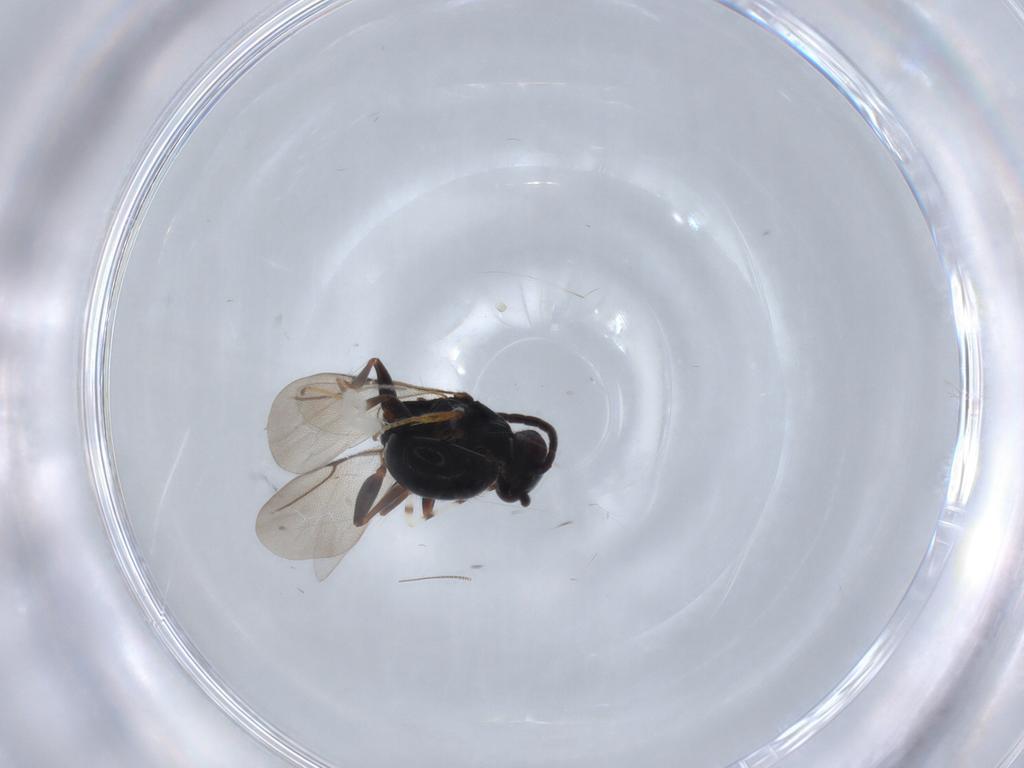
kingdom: Animalia
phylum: Arthropoda
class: Insecta
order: Hymenoptera
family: Bethylidae
